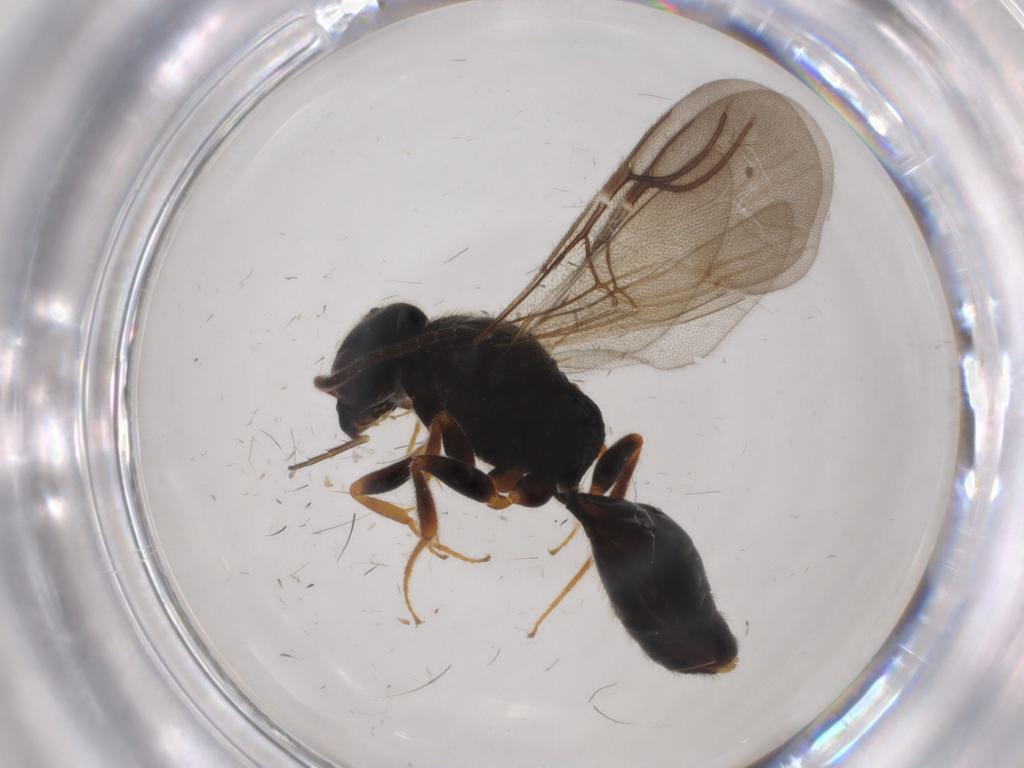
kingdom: Animalia
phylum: Arthropoda
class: Insecta
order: Hymenoptera
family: Bethylidae
